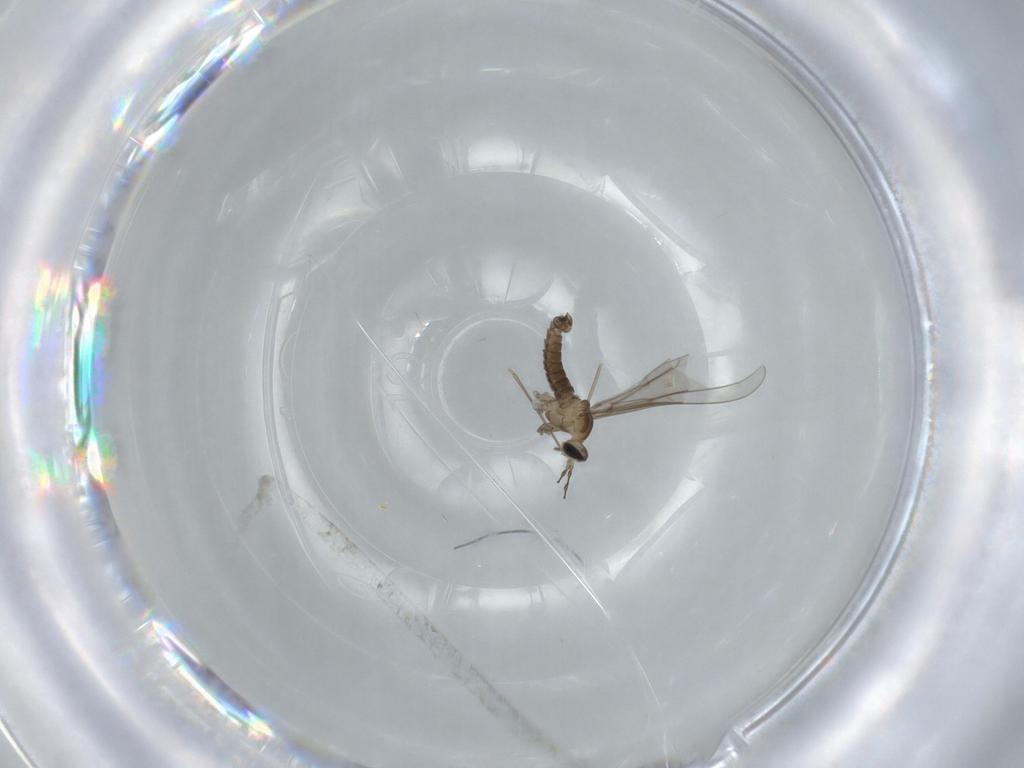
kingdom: Animalia
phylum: Arthropoda
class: Insecta
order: Diptera
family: Cecidomyiidae
